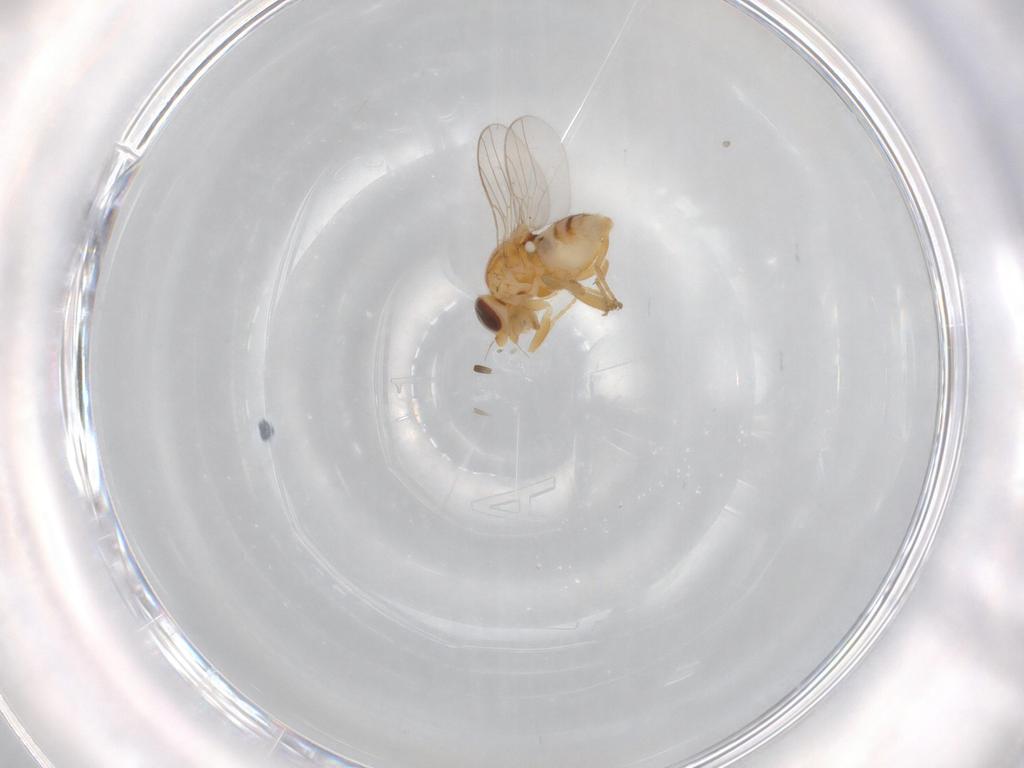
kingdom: Animalia
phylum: Arthropoda
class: Insecta
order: Diptera
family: Chloropidae
